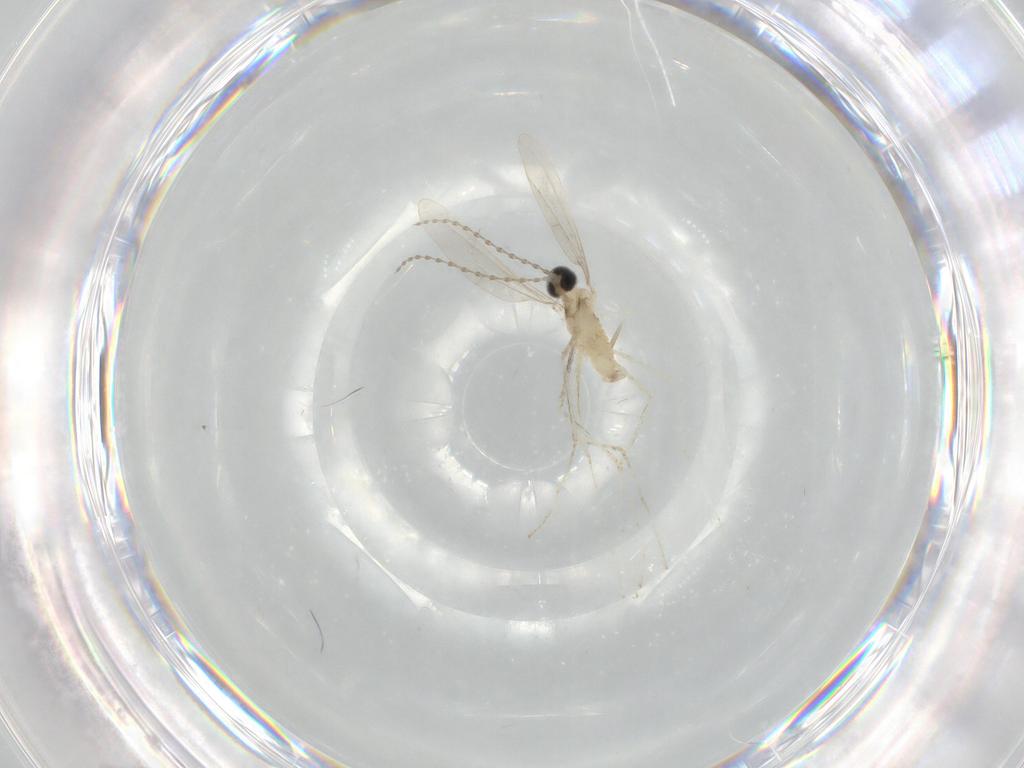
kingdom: Animalia
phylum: Arthropoda
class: Insecta
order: Diptera
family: Cecidomyiidae
